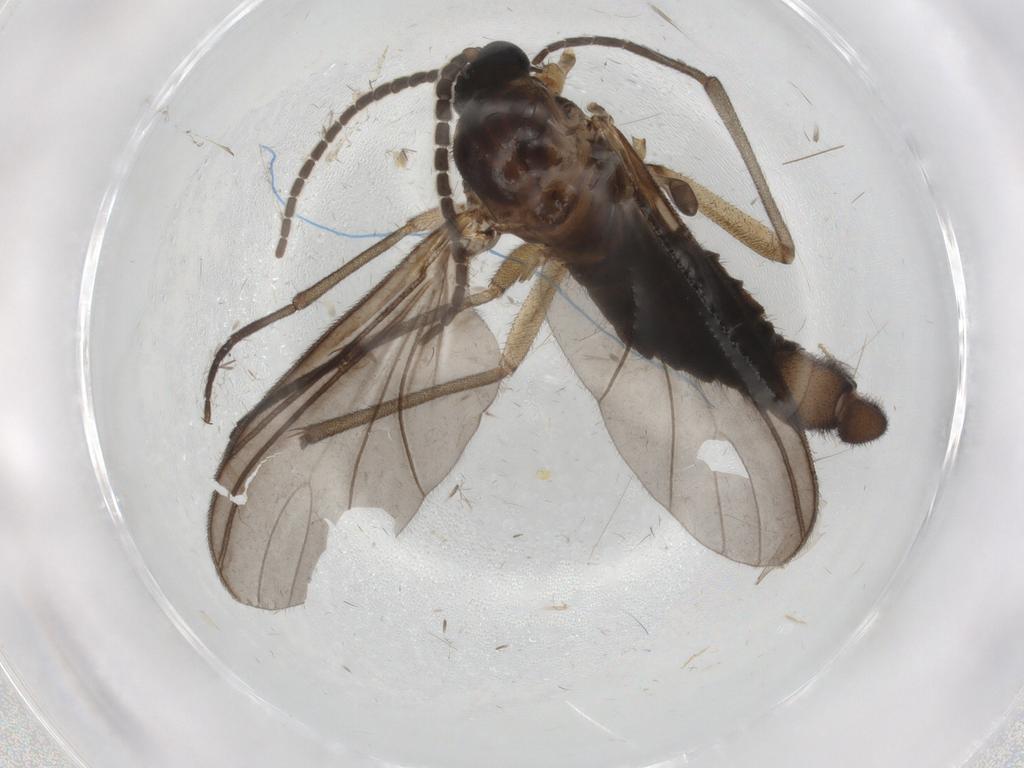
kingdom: Animalia
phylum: Arthropoda
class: Insecta
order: Diptera
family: Sciaridae
